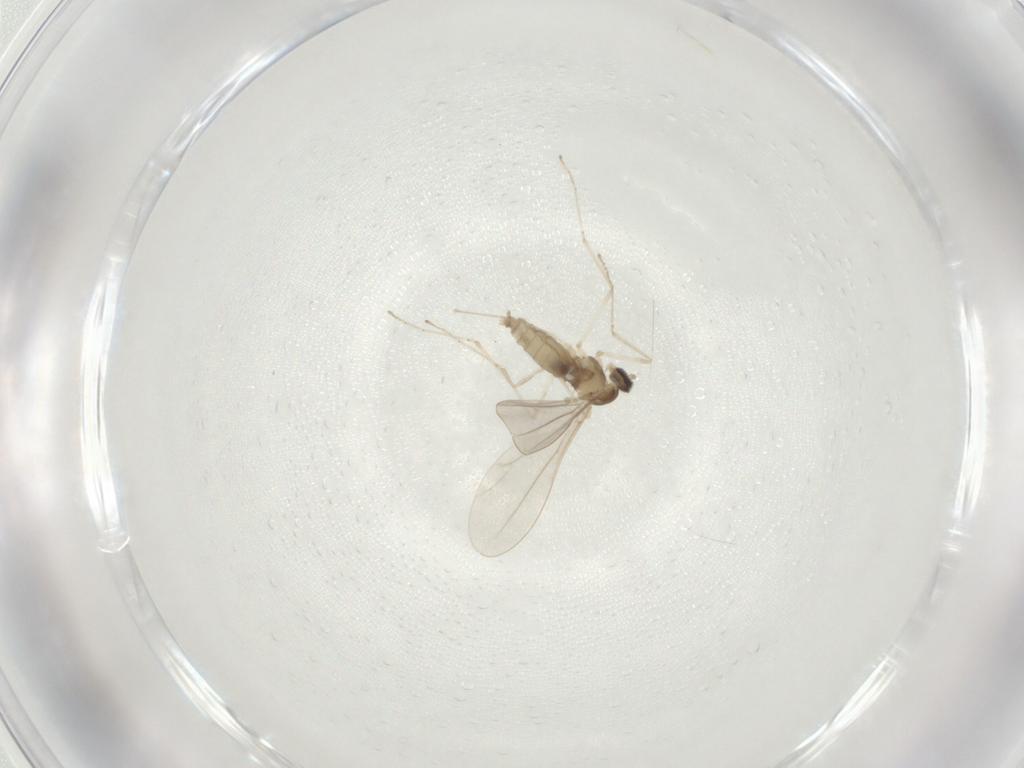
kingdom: Animalia
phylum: Arthropoda
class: Insecta
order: Diptera
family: Cecidomyiidae
